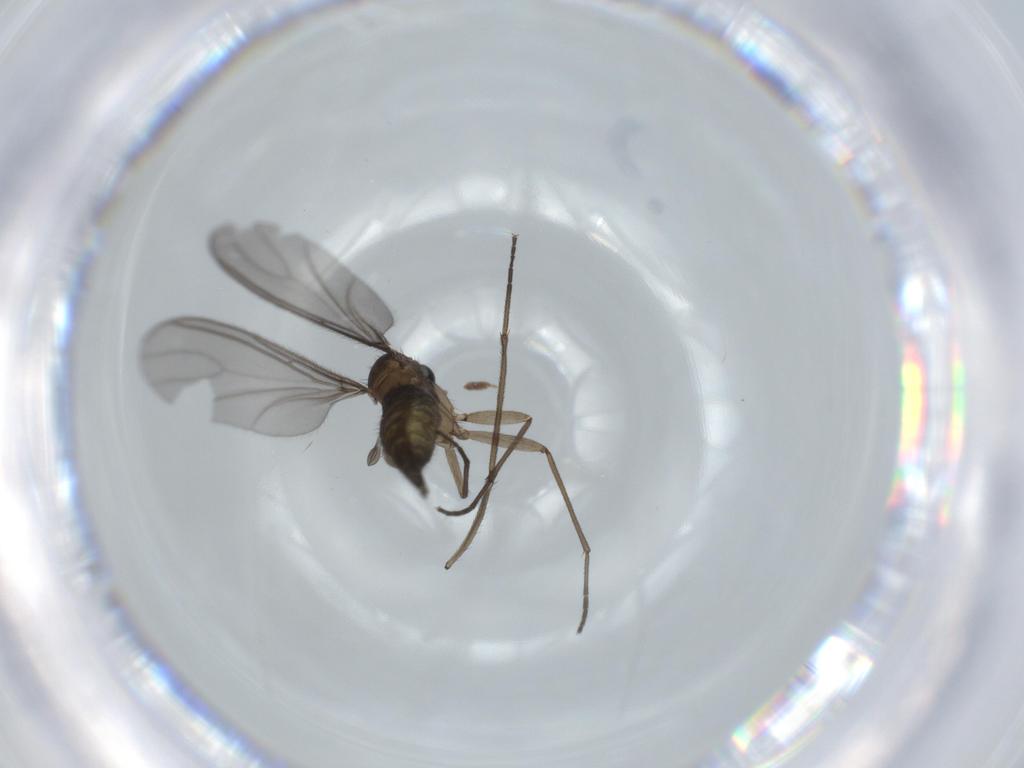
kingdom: Animalia
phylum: Arthropoda
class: Insecta
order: Diptera
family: Sciaridae
